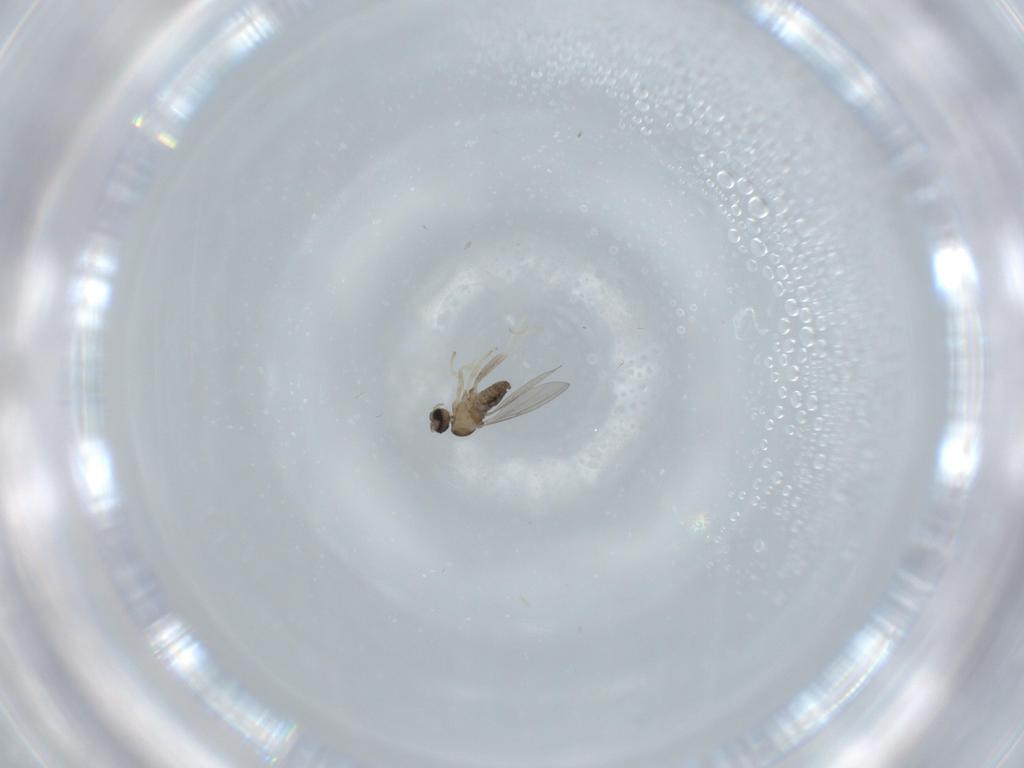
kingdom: Animalia
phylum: Arthropoda
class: Insecta
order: Diptera
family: Cecidomyiidae
